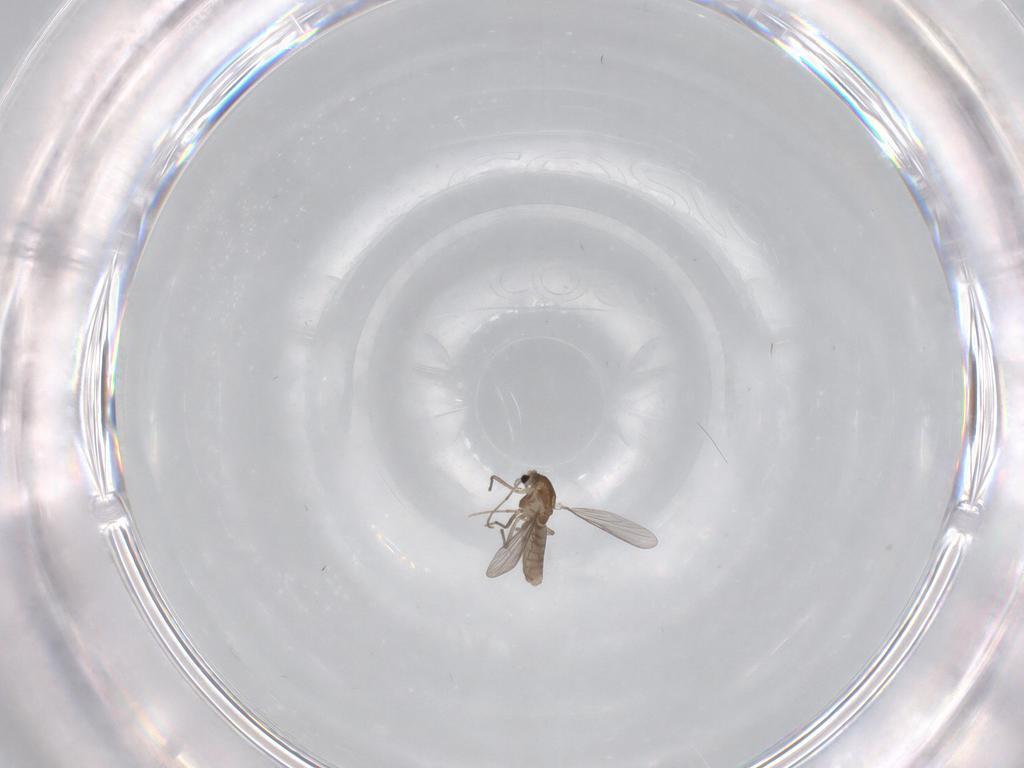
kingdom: Animalia
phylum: Arthropoda
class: Insecta
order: Diptera
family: Chironomidae
